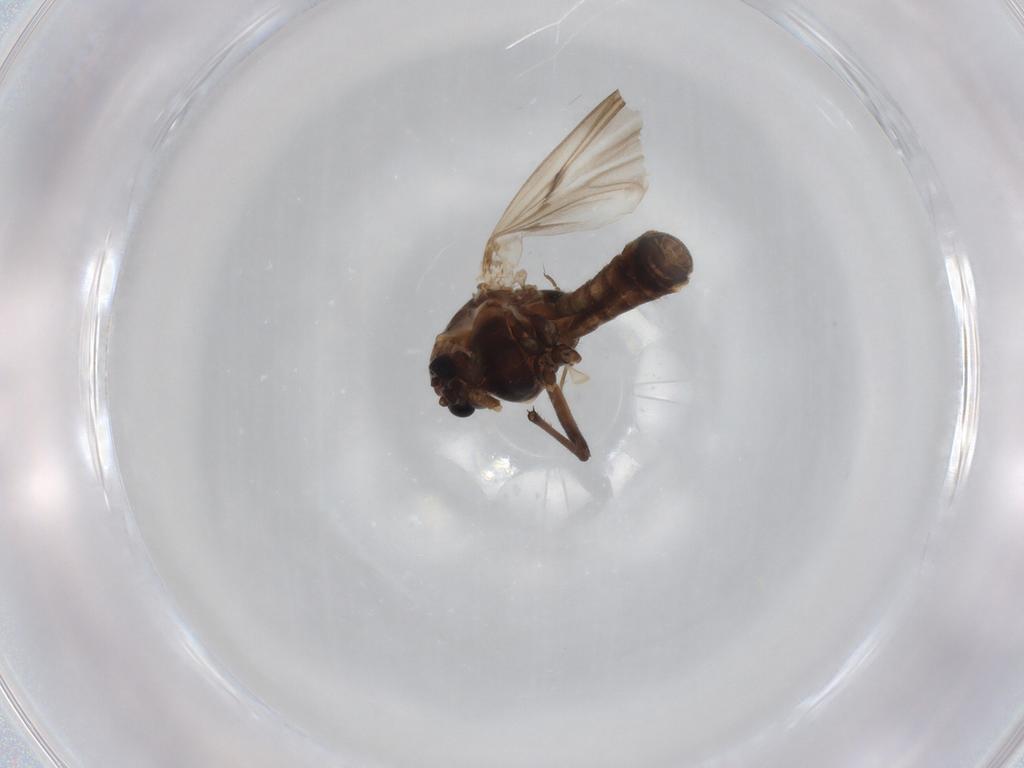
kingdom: Animalia
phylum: Arthropoda
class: Insecta
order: Diptera
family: Chironomidae
